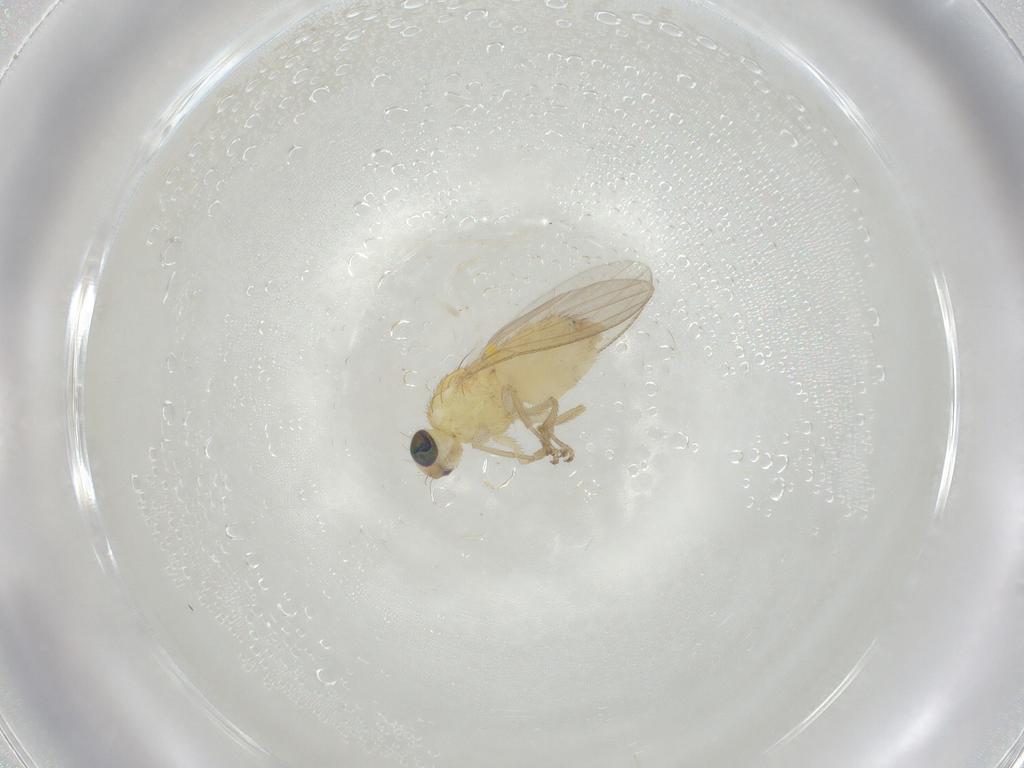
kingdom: Animalia
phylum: Arthropoda
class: Insecta
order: Diptera
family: Chyromyidae
